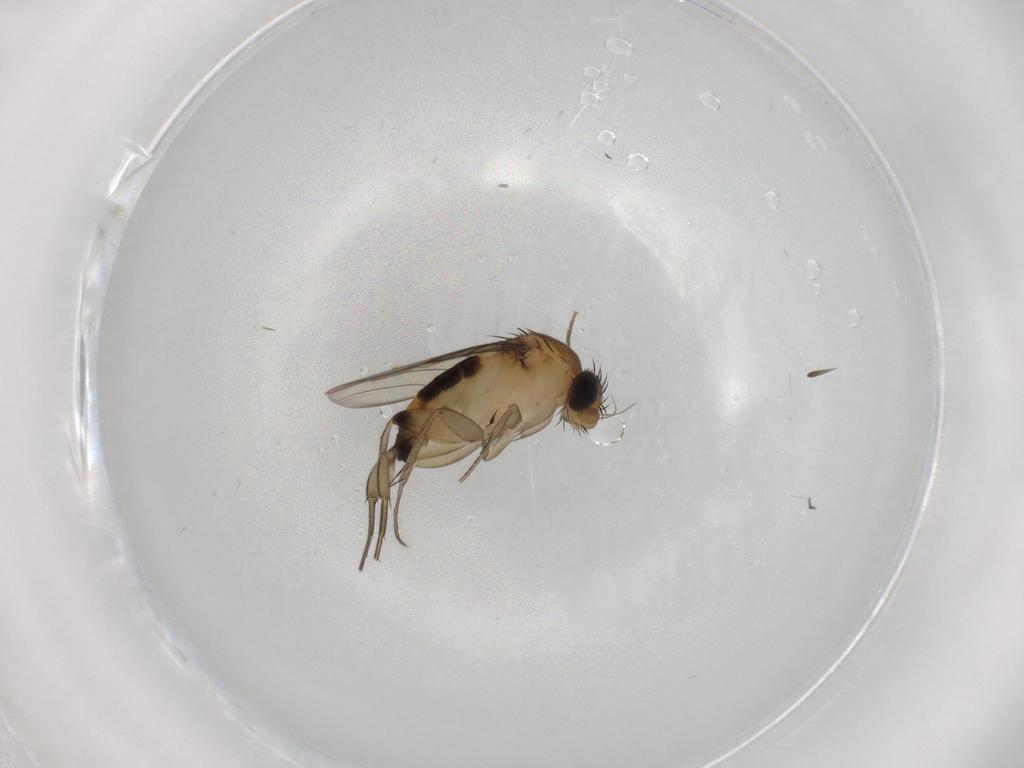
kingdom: Animalia
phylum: Arthropoda
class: Insecta
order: Diptera
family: Phoridae
